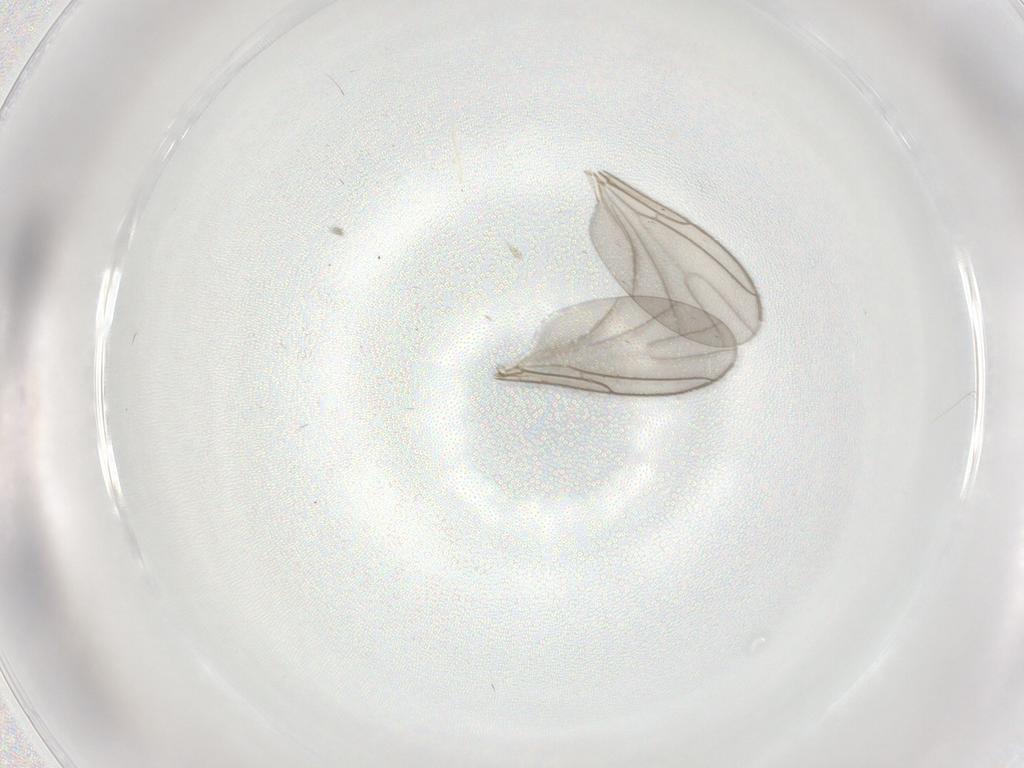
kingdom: Animalia
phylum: Arthropoda
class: Insecta
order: Diptera
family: Sciaridae
